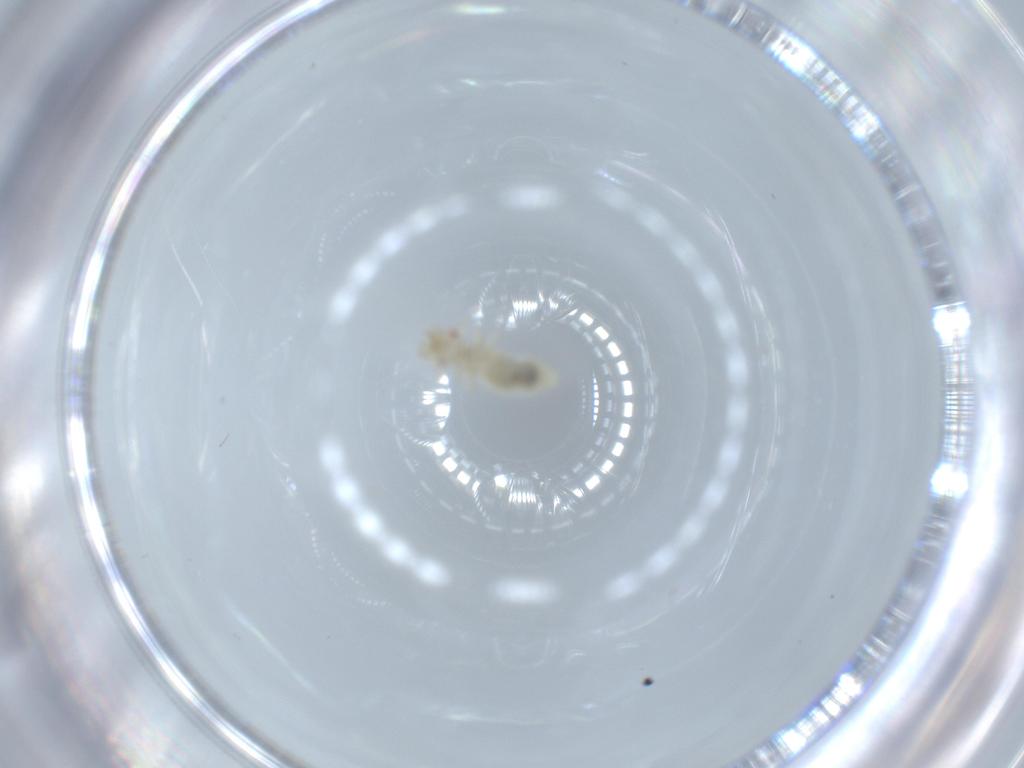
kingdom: Animalia
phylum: Arthropoda
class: Insecta
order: Psocodea
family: Caeciliusidae
